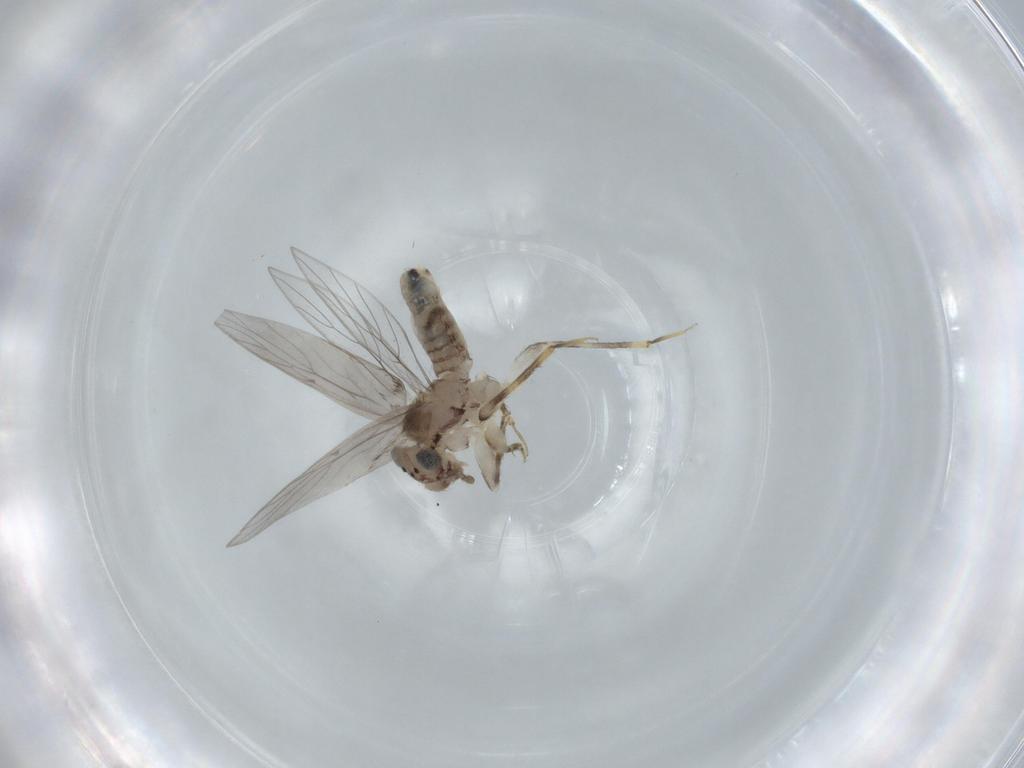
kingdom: Animalia
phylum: Arthropoda
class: Insecta
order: Psocodea
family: Lepidopsocidae
